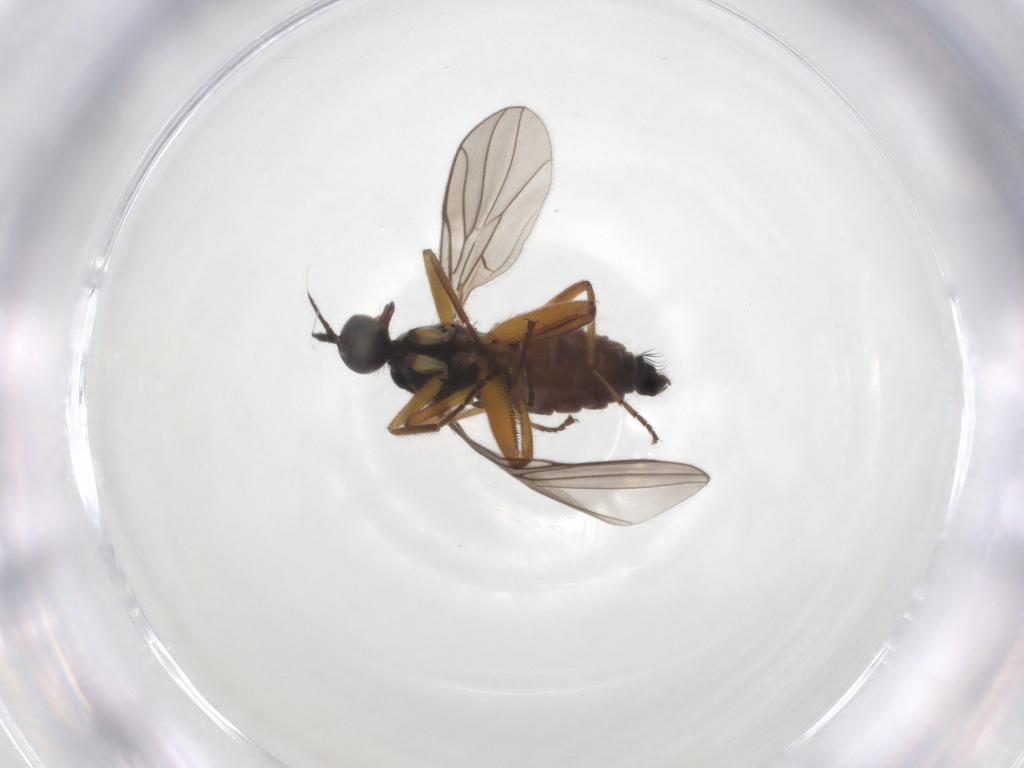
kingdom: Animalia
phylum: Arthropoda
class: Insecta
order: Diptera
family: Hybotidae
